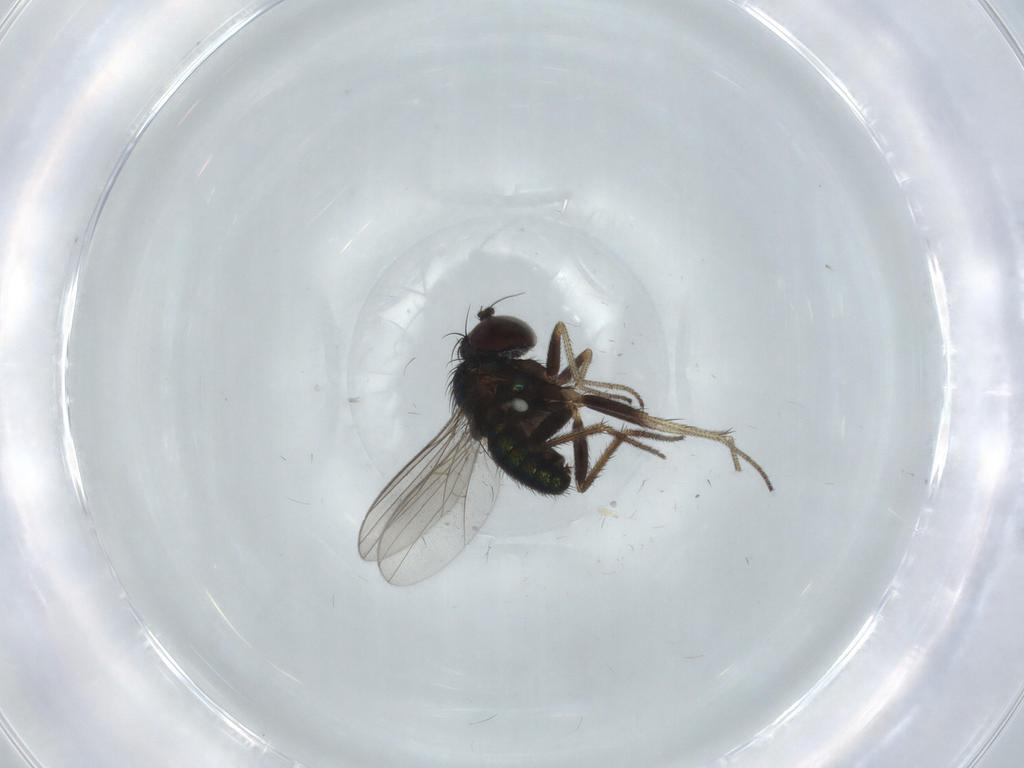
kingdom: Animalia
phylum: Arthropoda
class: Insecta
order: Diptera
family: Dolichopodidae
